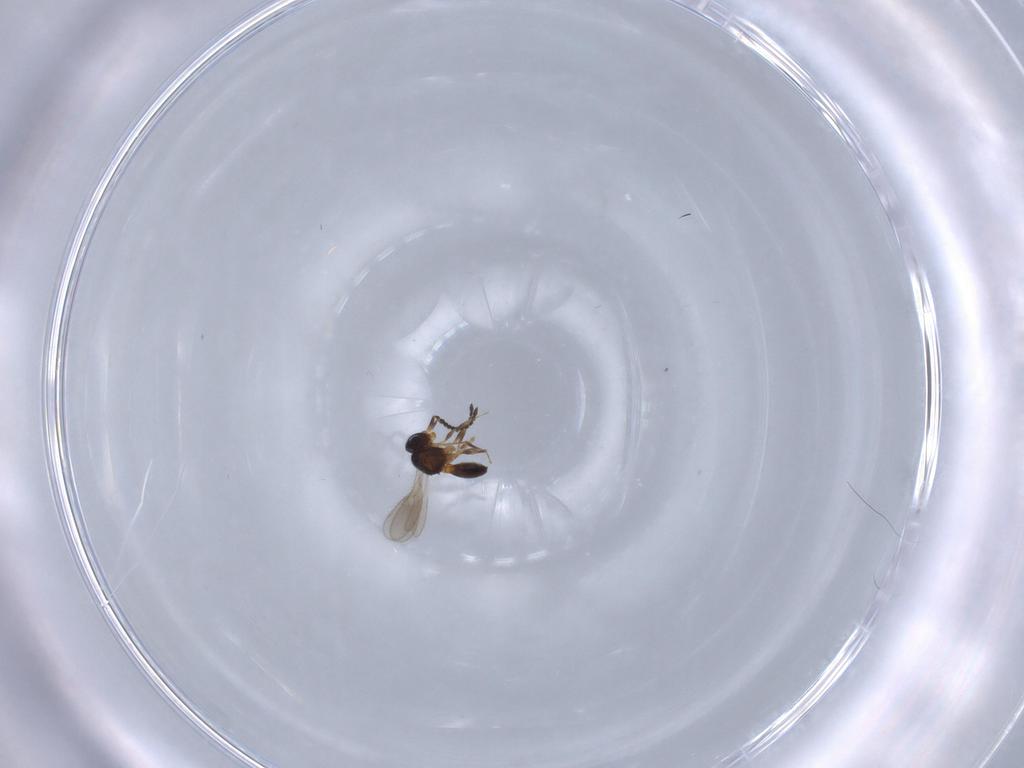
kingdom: Animalia
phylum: Arthropoda
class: Insecta
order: Hymenoptera
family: Scelionidae
